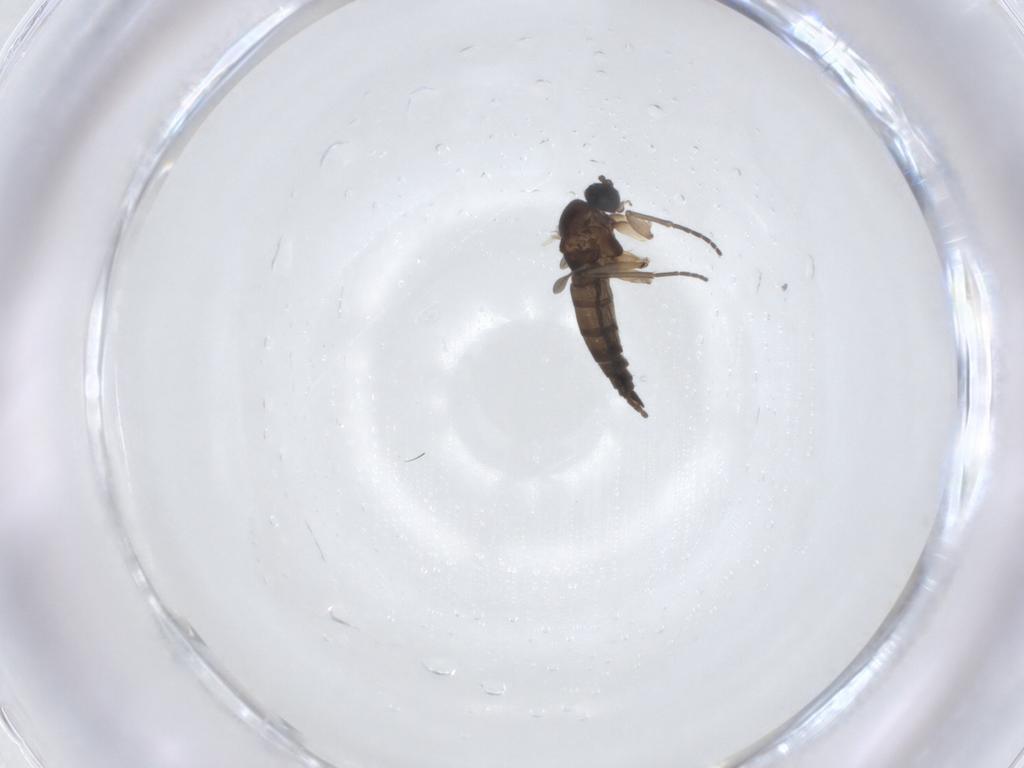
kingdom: Animalia
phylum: Arthropoda
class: Insecta
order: Diptera
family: Sciaridae
